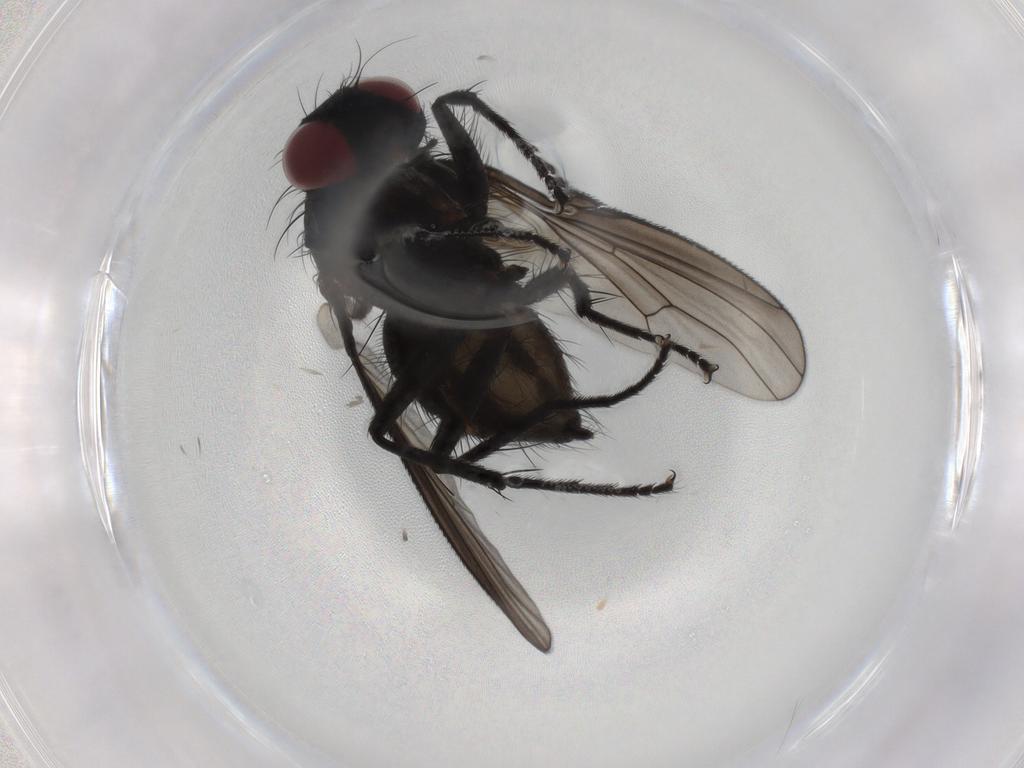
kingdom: Animalia
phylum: Arthropoda
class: Insecta
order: Diptera
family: Muscidae
